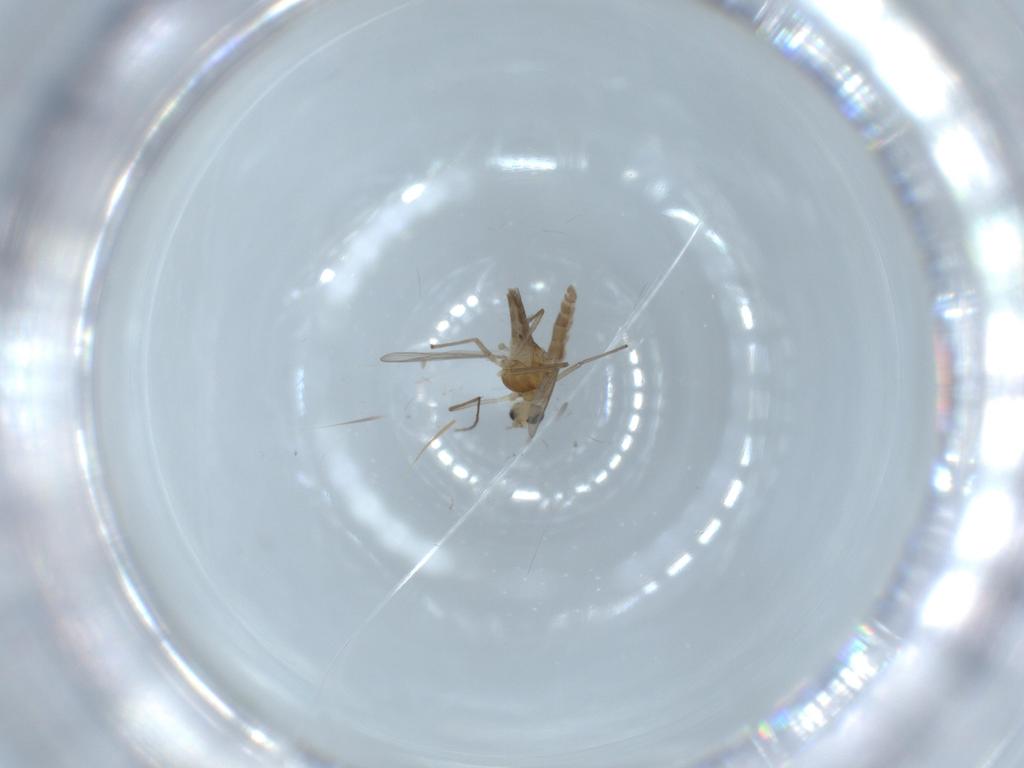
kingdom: Animalia
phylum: Arthropoda
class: Insecta
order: Diptera
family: Chironomidae
